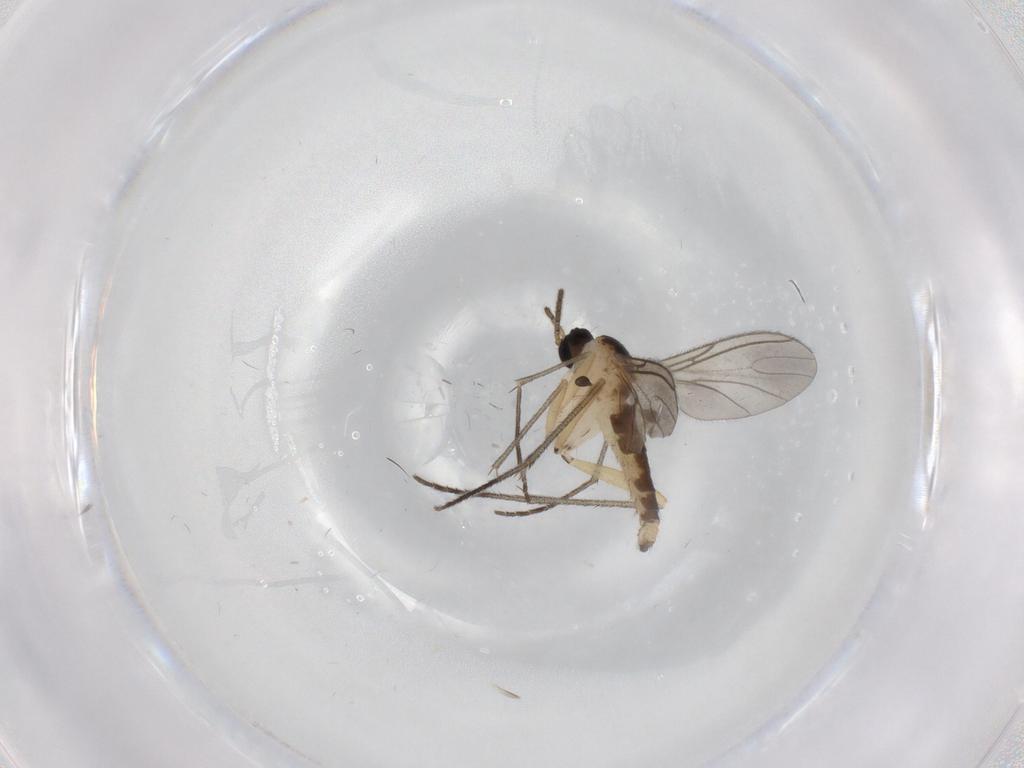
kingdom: Animalia
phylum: Arthropoda
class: Insecta
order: Diptera
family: Sciaridae
